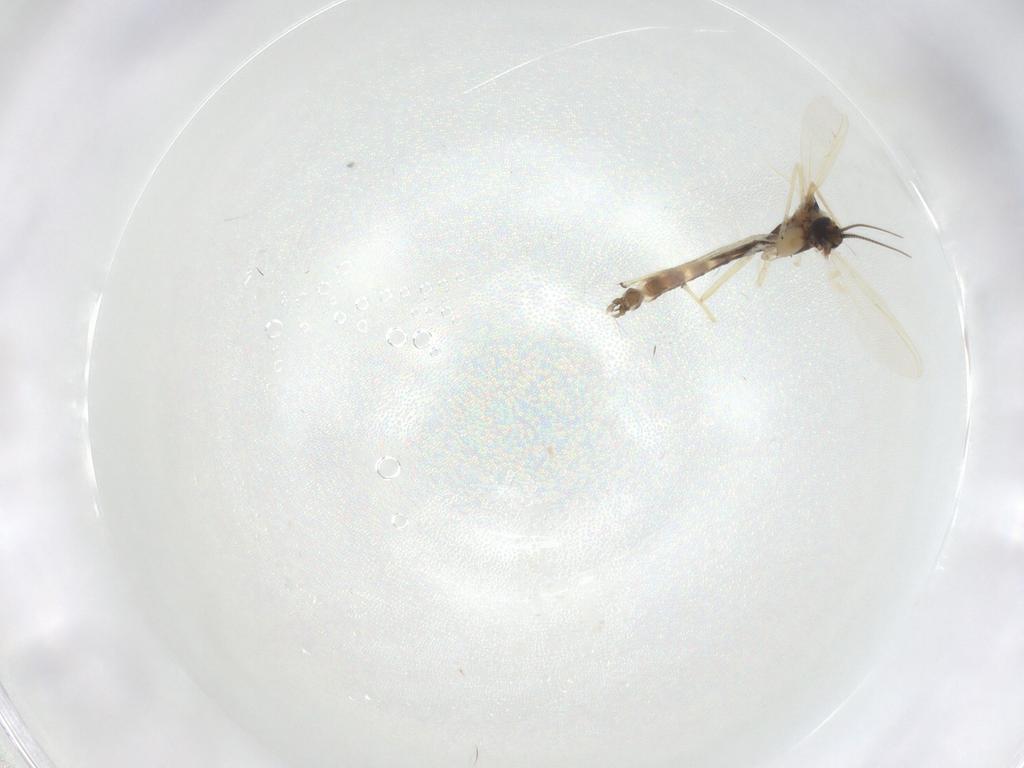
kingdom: Animalia
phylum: Arthropoda
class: Insecta
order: Diptera
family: Chironomidae
